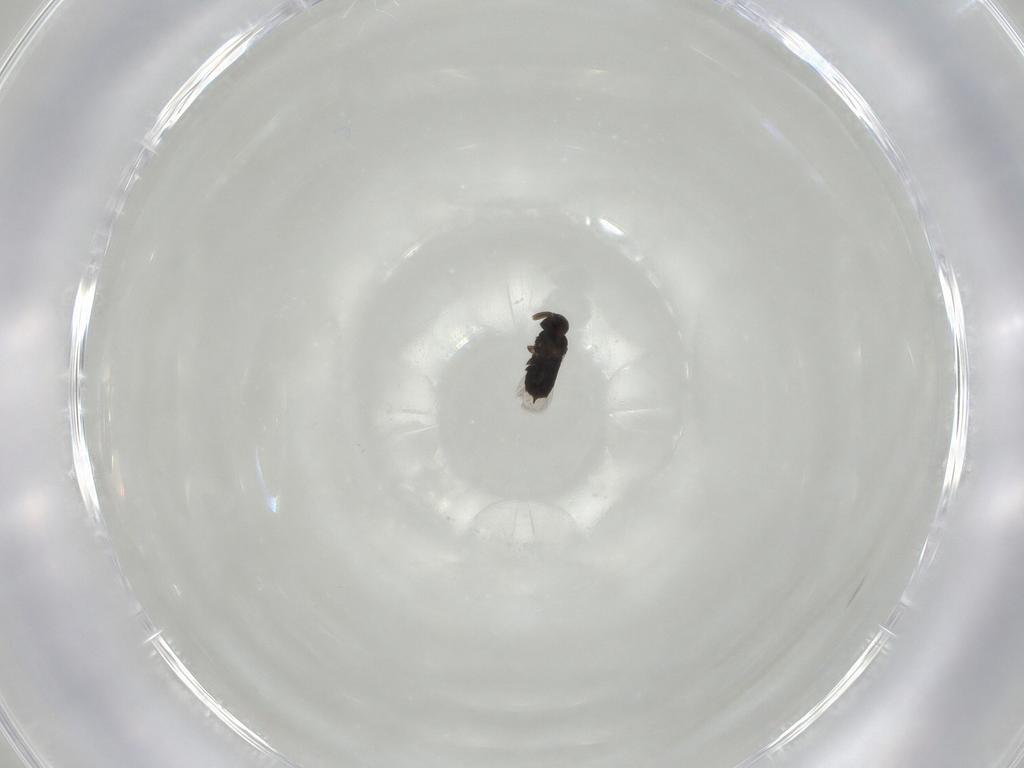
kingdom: Animalia
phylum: Arthropoda
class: Insecta
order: Hymenoptera
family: Signiphoridae
